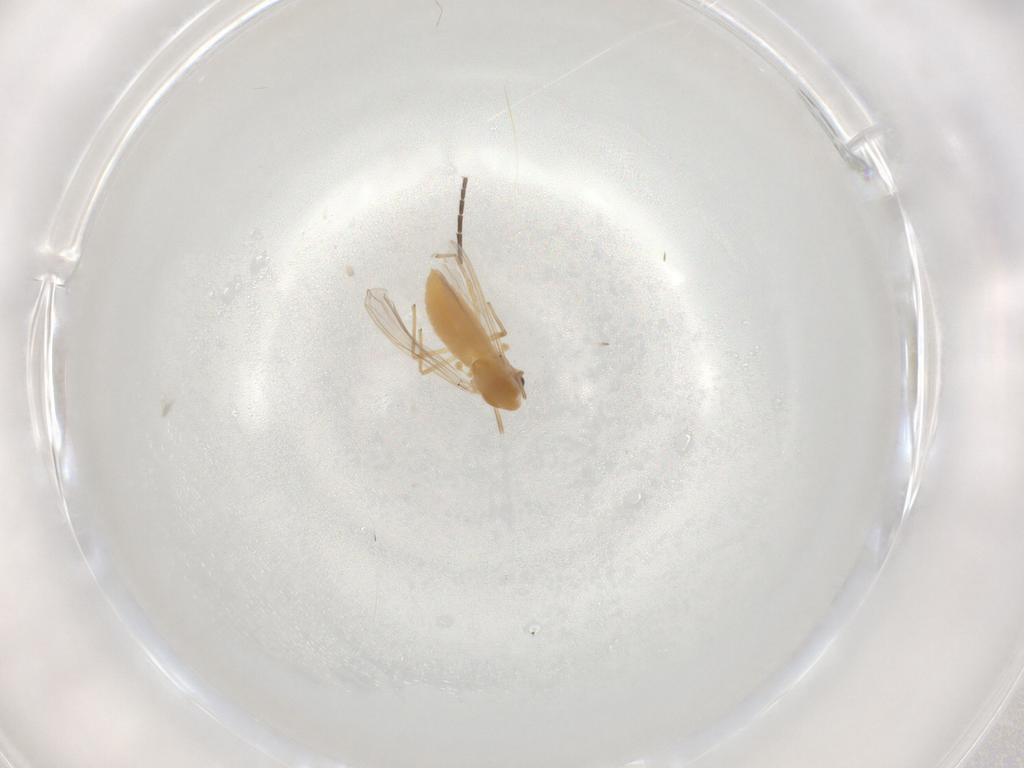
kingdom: Animalia
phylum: Arthropoda
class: Insecta
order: Diptera
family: Chironomidae
